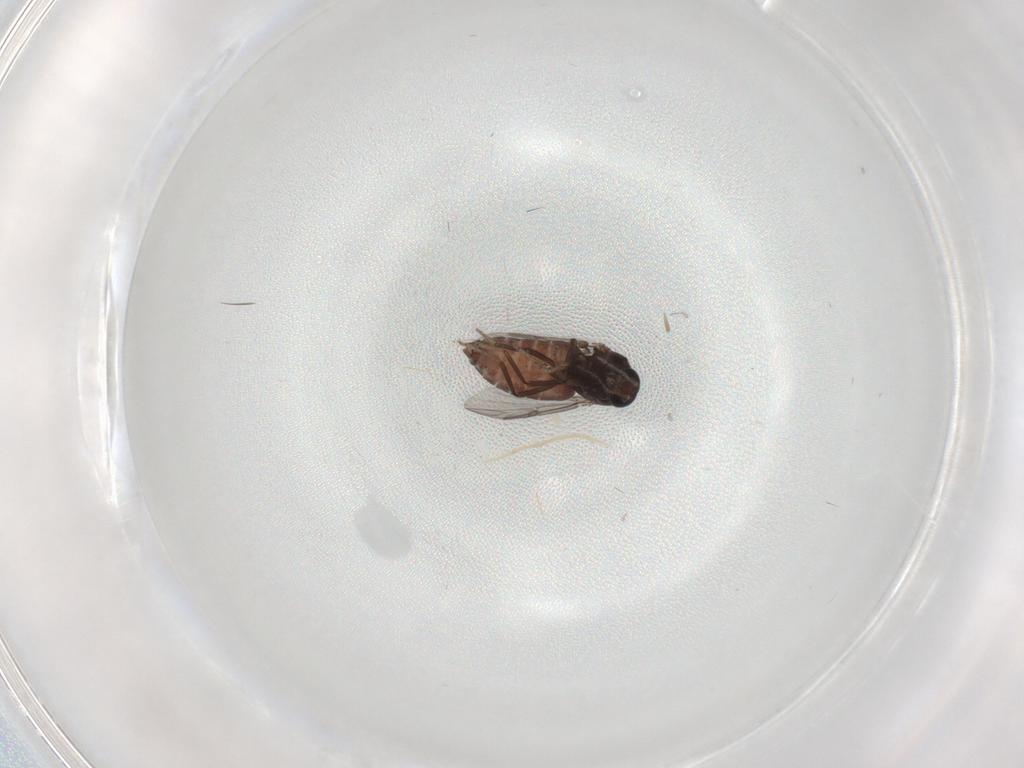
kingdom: Animalia
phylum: Arthropoda
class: Insecta
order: Diptera
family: Ceratopogonidae
